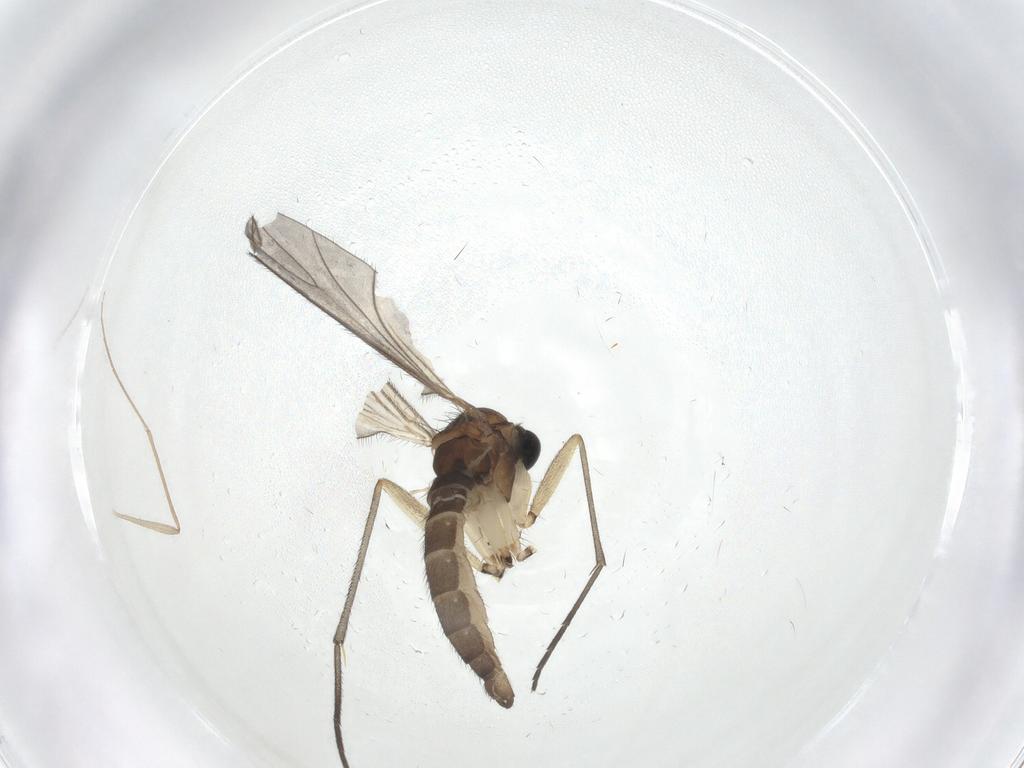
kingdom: Animalia
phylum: Arthropoda
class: Insecta
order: Diptera
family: Sciaridae
